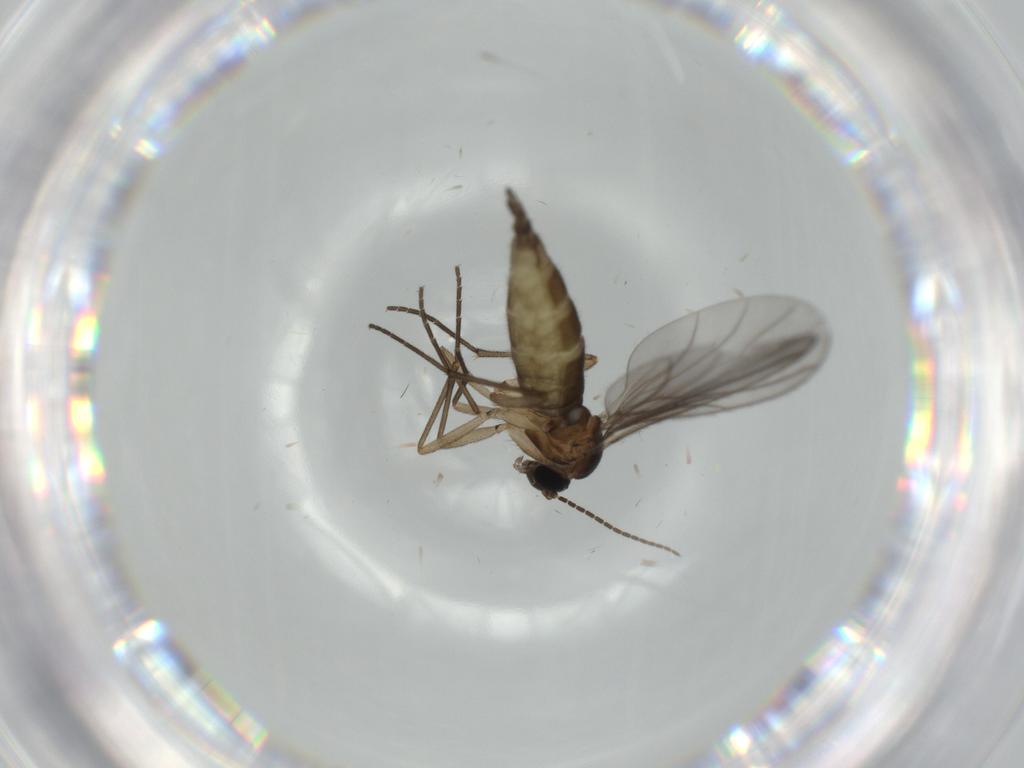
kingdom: Animalia
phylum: Arthropoda
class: Insecta
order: Diptera
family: Sciaridae
